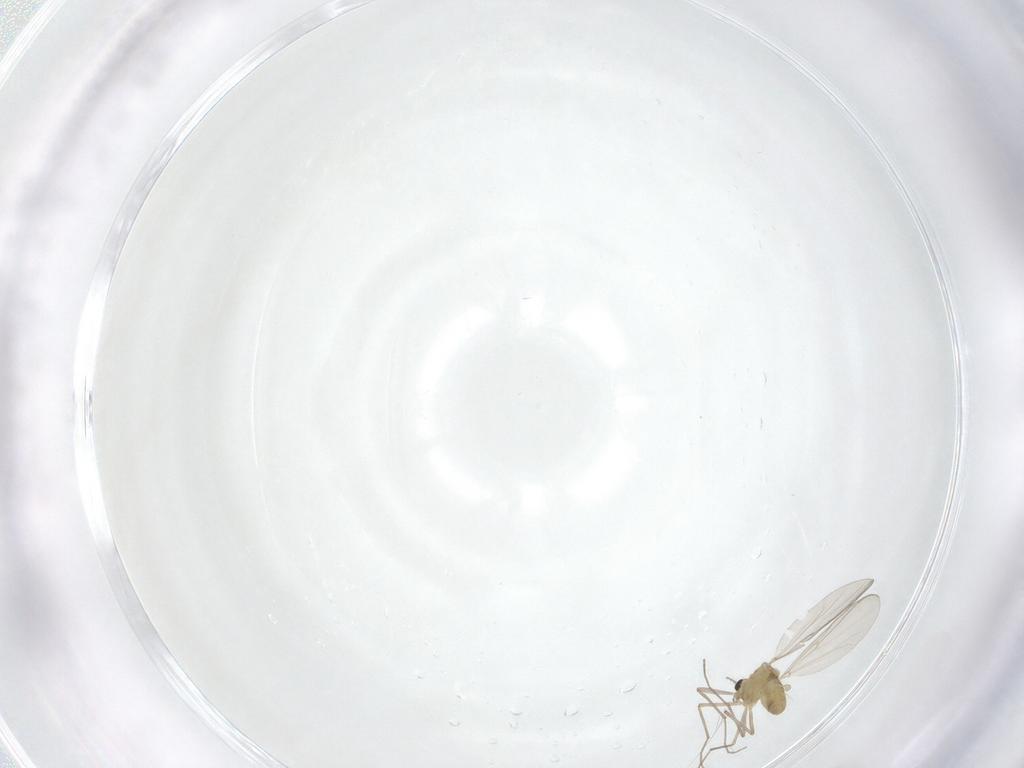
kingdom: Animalia
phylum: Arthropoda
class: Insecta
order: Diptera
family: Chironomidae
